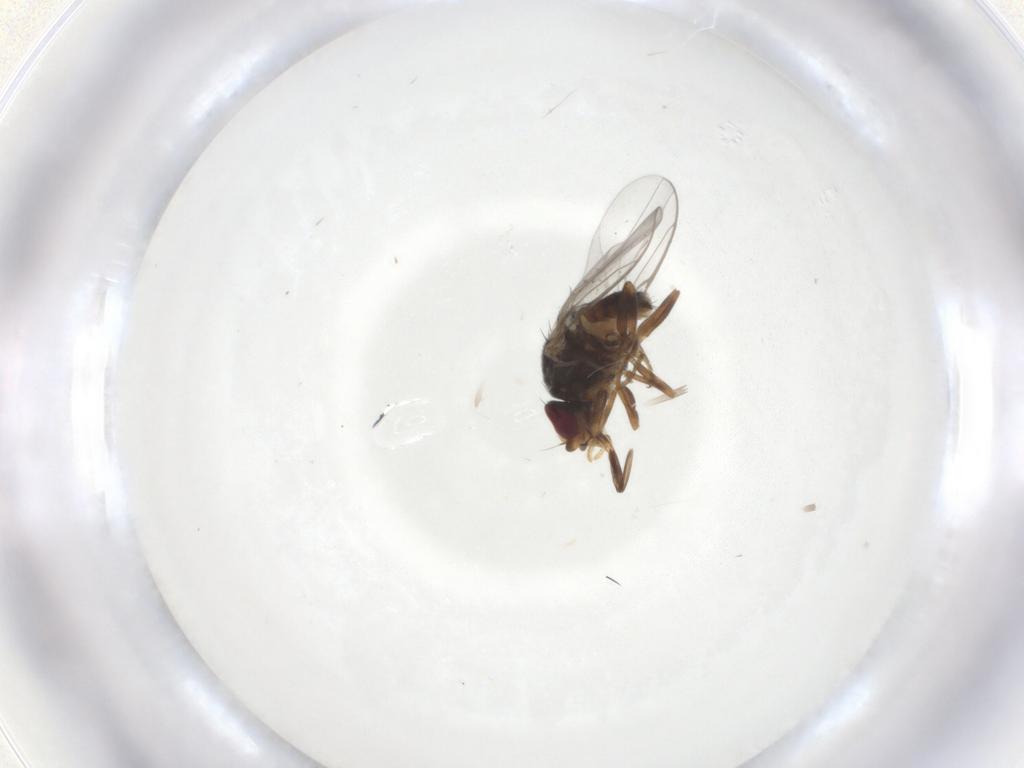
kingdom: Animalia
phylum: Arthropoda
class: Insecta
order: Diptera
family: Chloropidae
